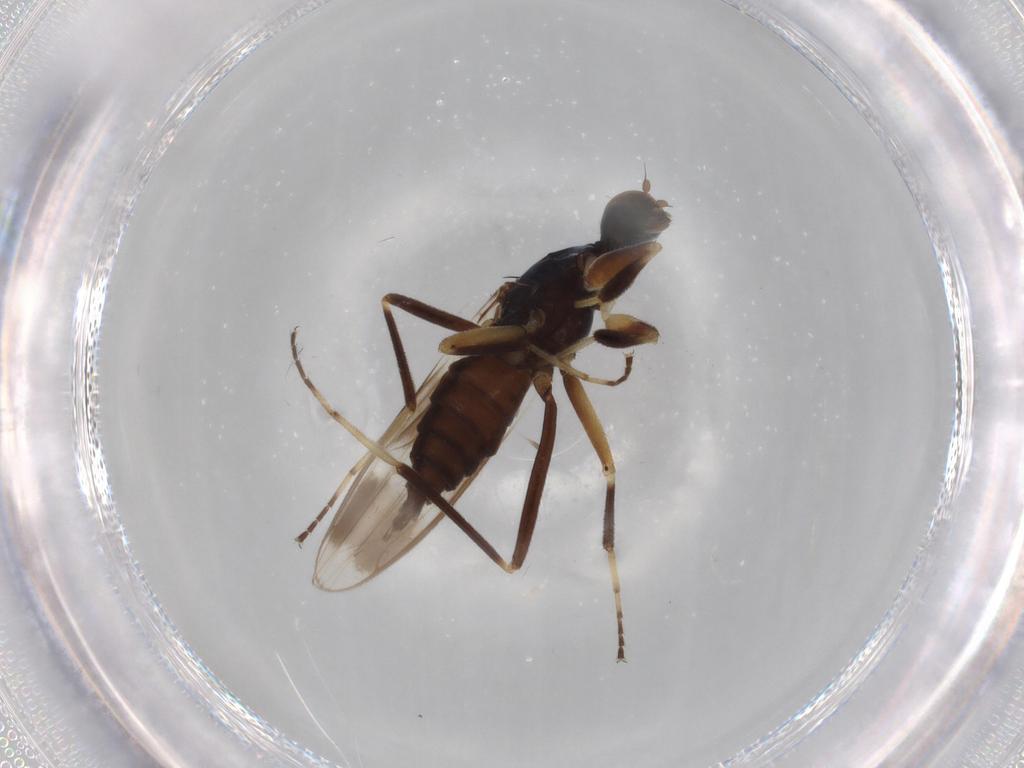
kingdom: Animalia
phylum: Arthropoda
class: Insecta
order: Diptera
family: Hybotidae
